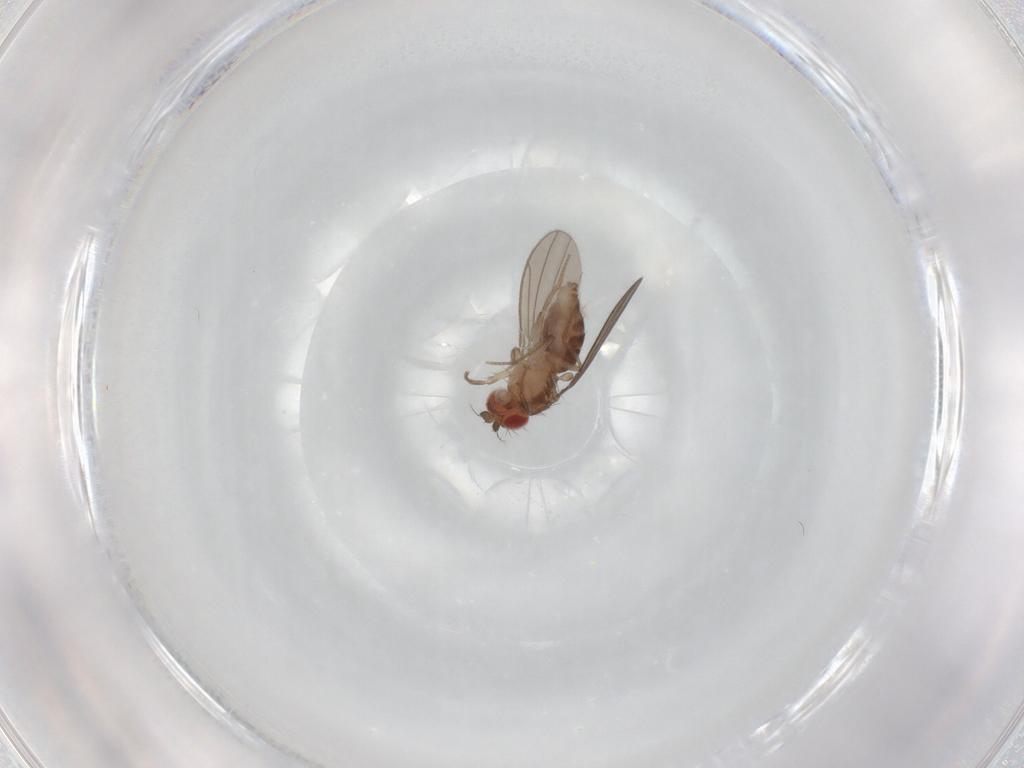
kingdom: Animalia
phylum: Arthropoda
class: Insecta
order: Diptera
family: Drosophilidae
